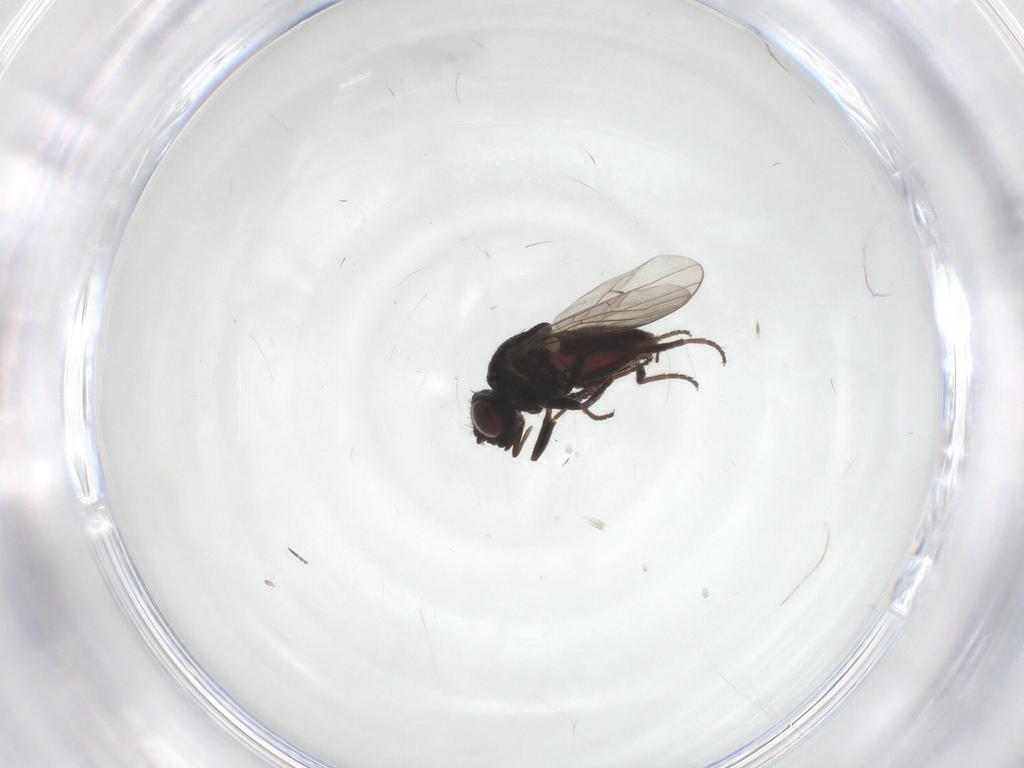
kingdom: Animalia
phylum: Arthropoda
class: Insecta
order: Diptera
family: Chloropidae
